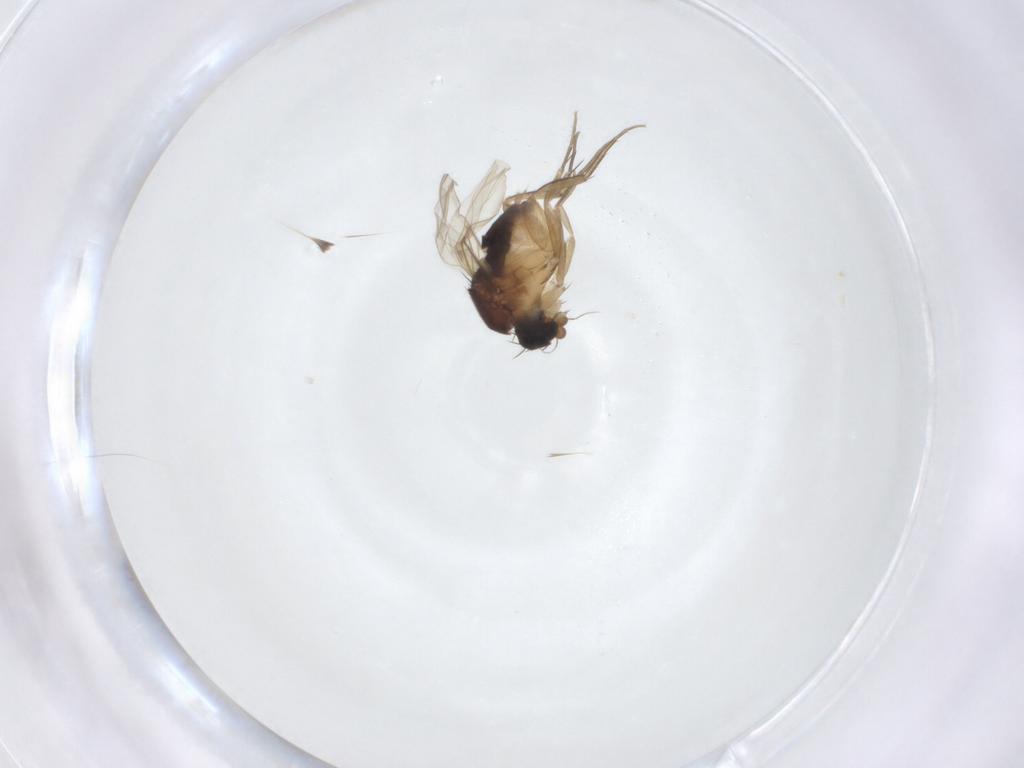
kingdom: Animalia
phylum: Arthropoda
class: Insecta
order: Diptera
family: Phoridae
